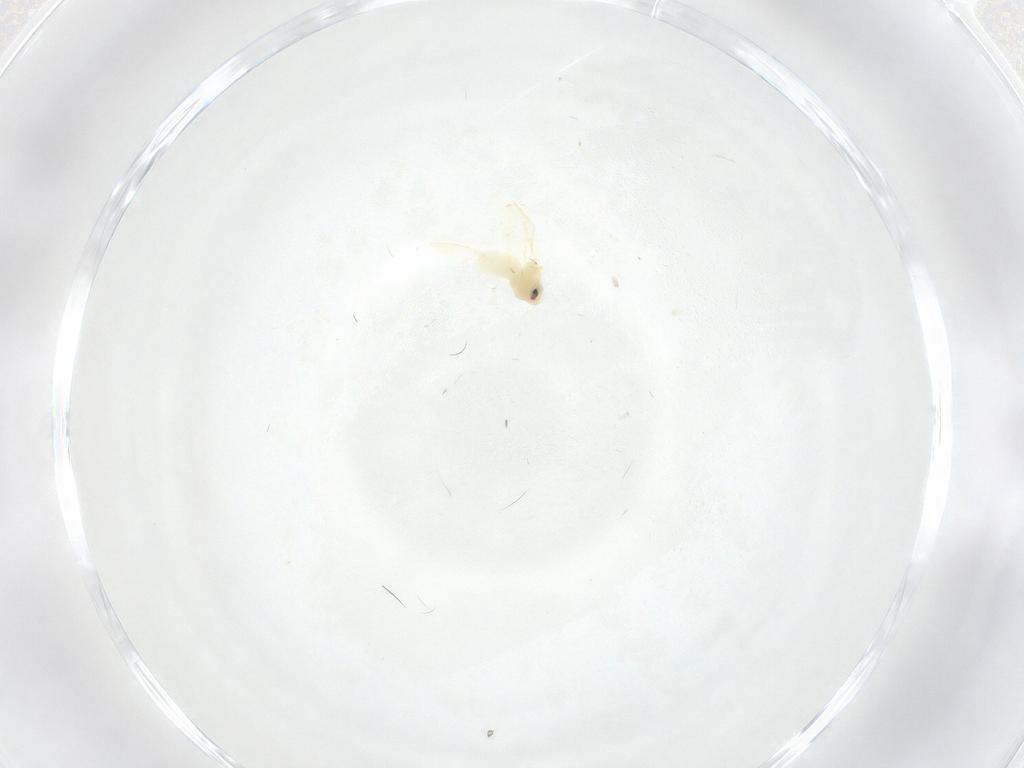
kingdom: Animalia
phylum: Arthropoda
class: Insecta
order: Hemiptera
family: Aleyrodidae
